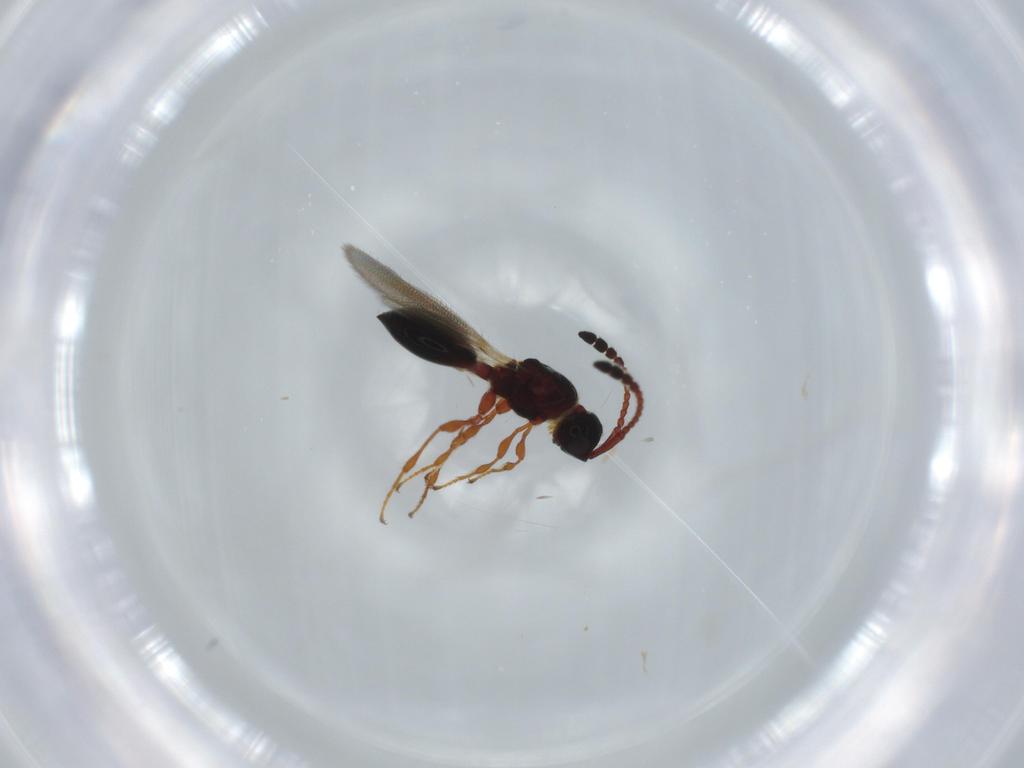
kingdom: Animalia
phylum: Arthropoda
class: Insecta
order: Hymenoptera
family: Diapriidae
